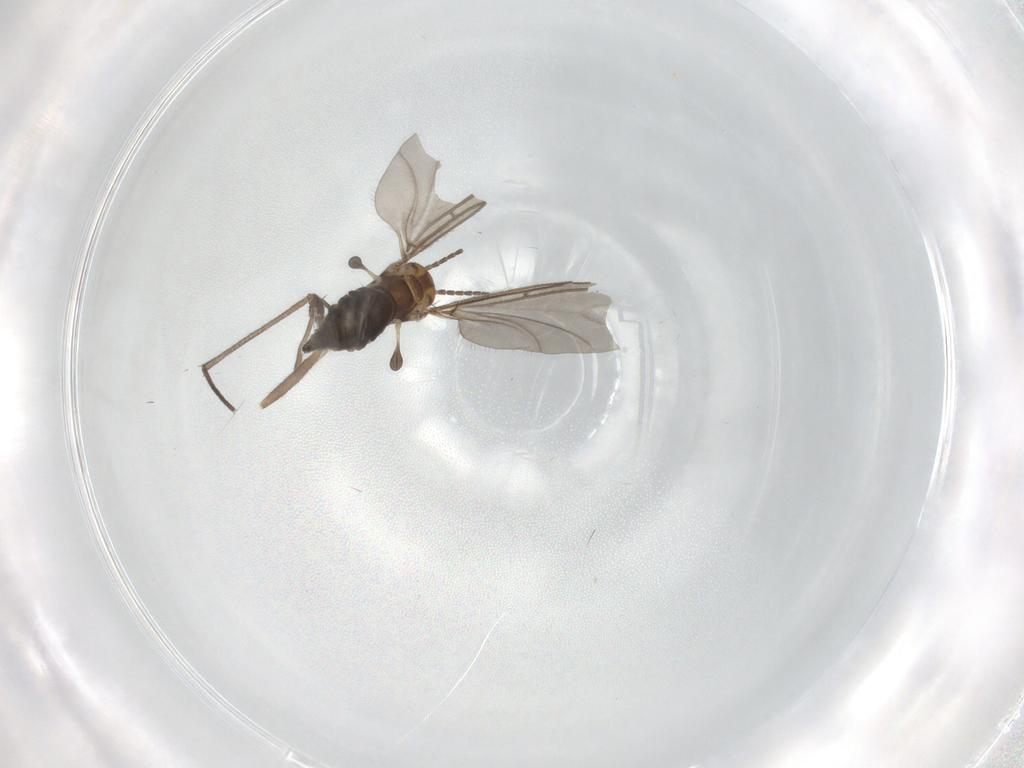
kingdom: Animalia
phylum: Arthropoda
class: Insecta
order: Diptera
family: Sciaridae
